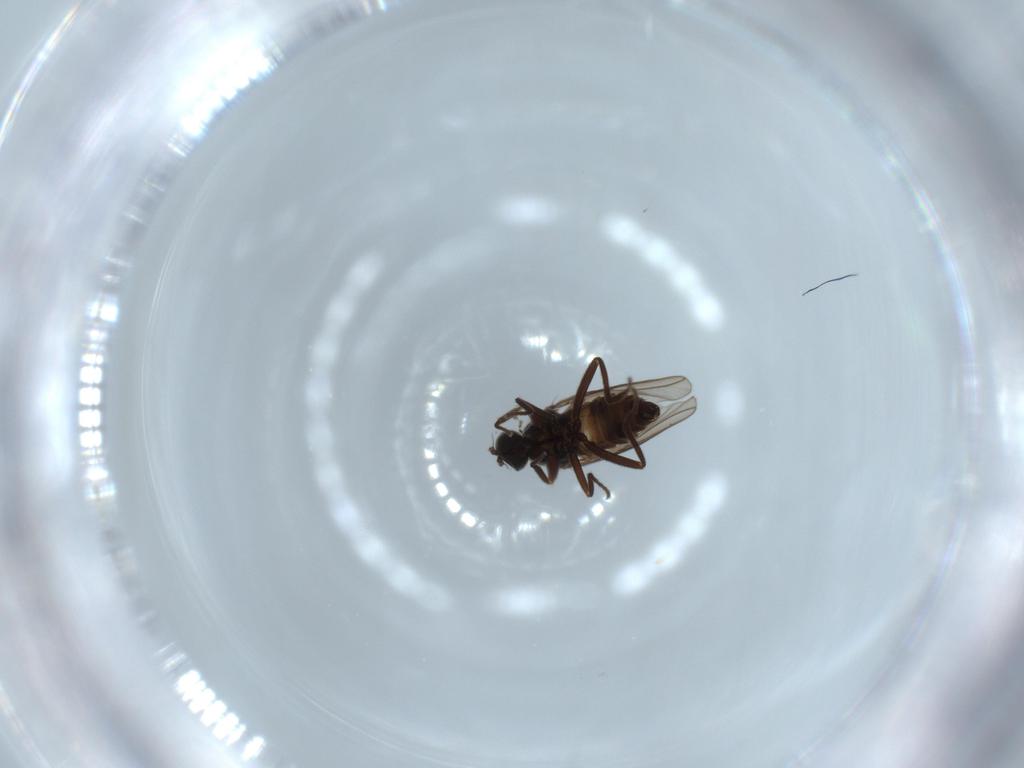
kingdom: Animalia
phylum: Arthropoda
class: Insecta
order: Diptera
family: Hybotidae
